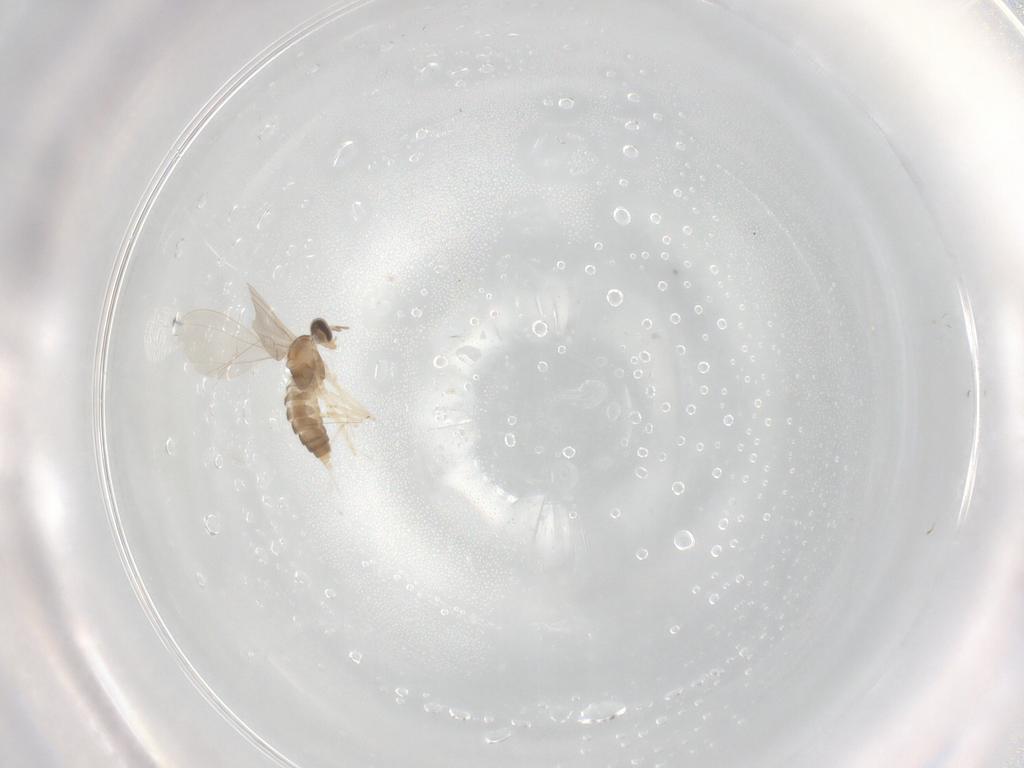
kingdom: Animalia
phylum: Arthropoda
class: Insecta
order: Diptera
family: Cecidomyiidae
